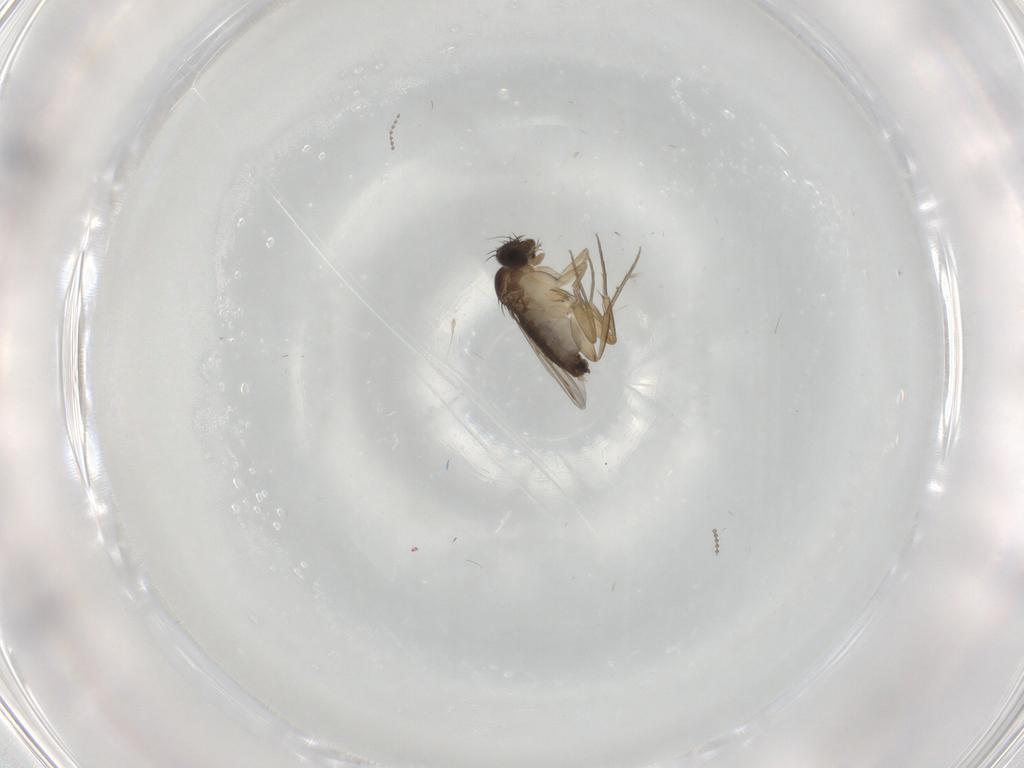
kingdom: Animalia
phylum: Arthropoda
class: Insecta
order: Diptera
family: Phoridae
